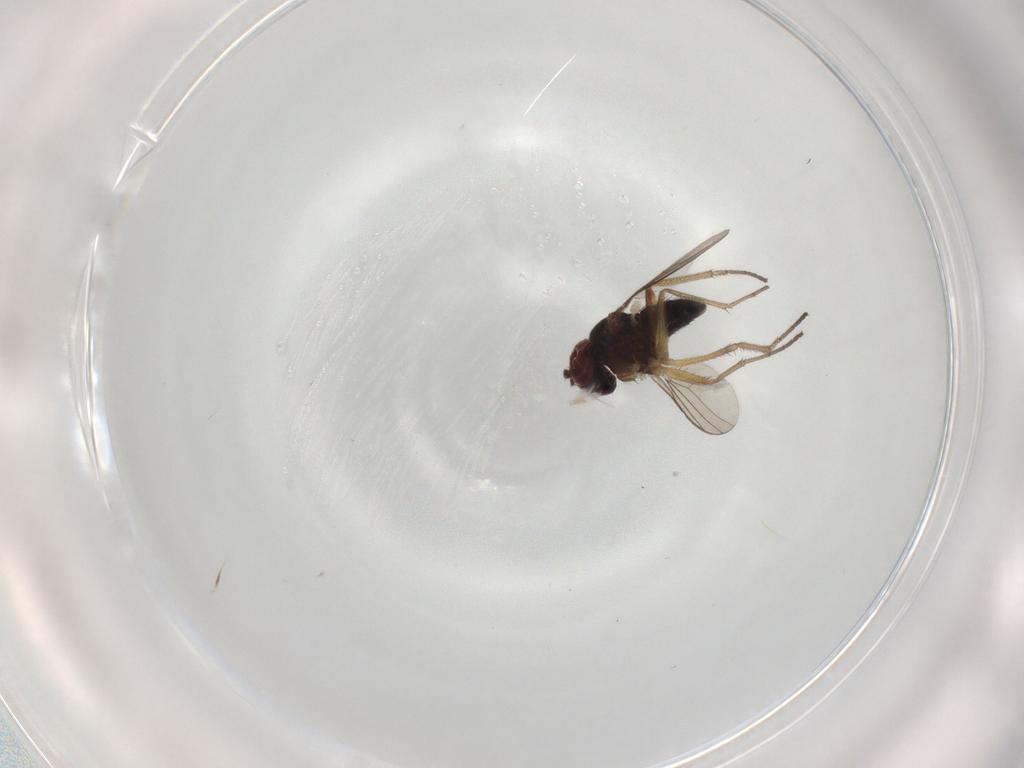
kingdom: Animalia
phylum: Arthropoda
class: Insecta
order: Diptera
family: Dolichopodidae
